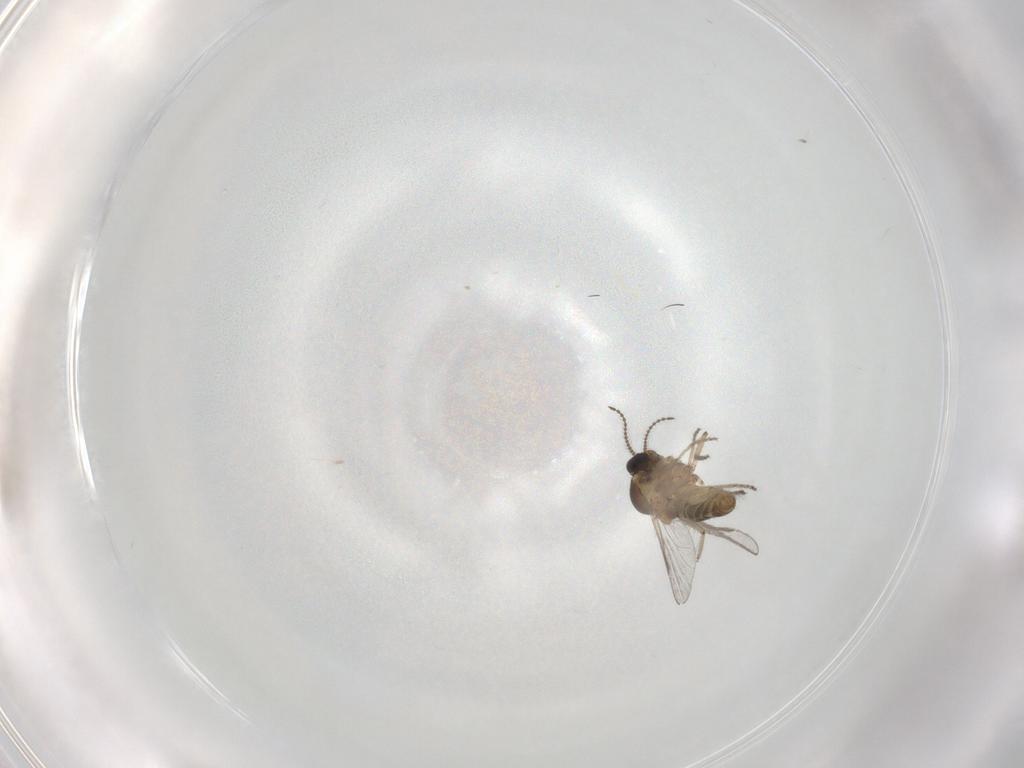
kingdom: Animalia
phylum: Arthropoda
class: Insecta
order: Diptera
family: Ceratopogonidae
